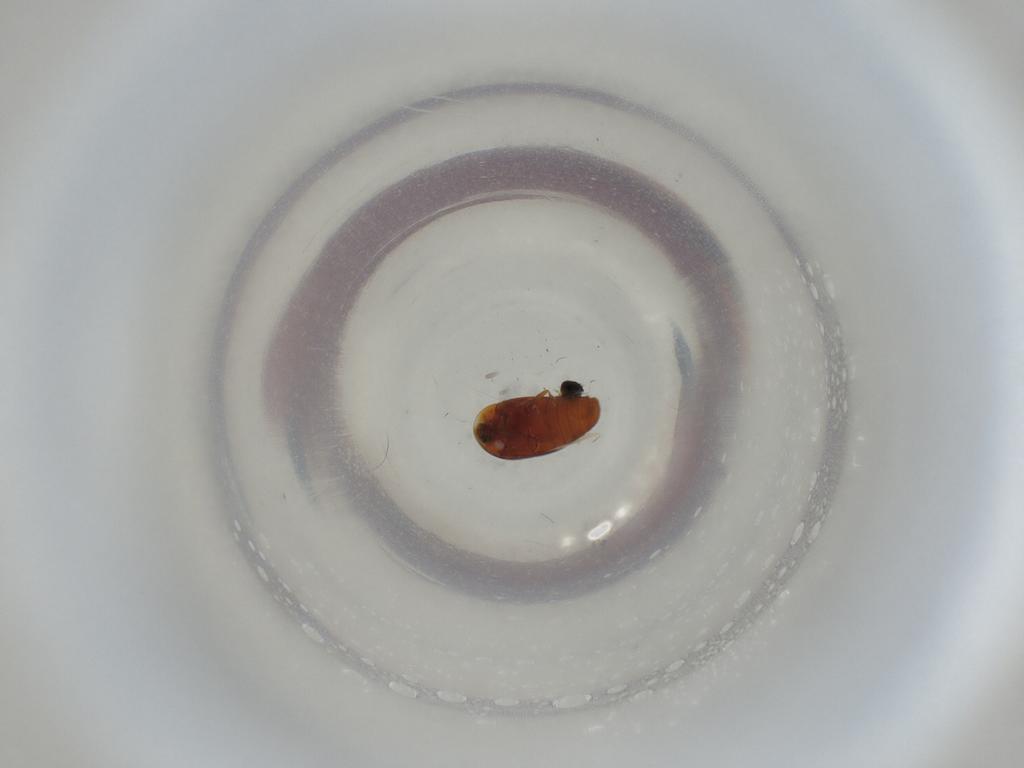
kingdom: Animalia
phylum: Arthropoda
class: Insecta
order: Coleoptera
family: Corylophidae
